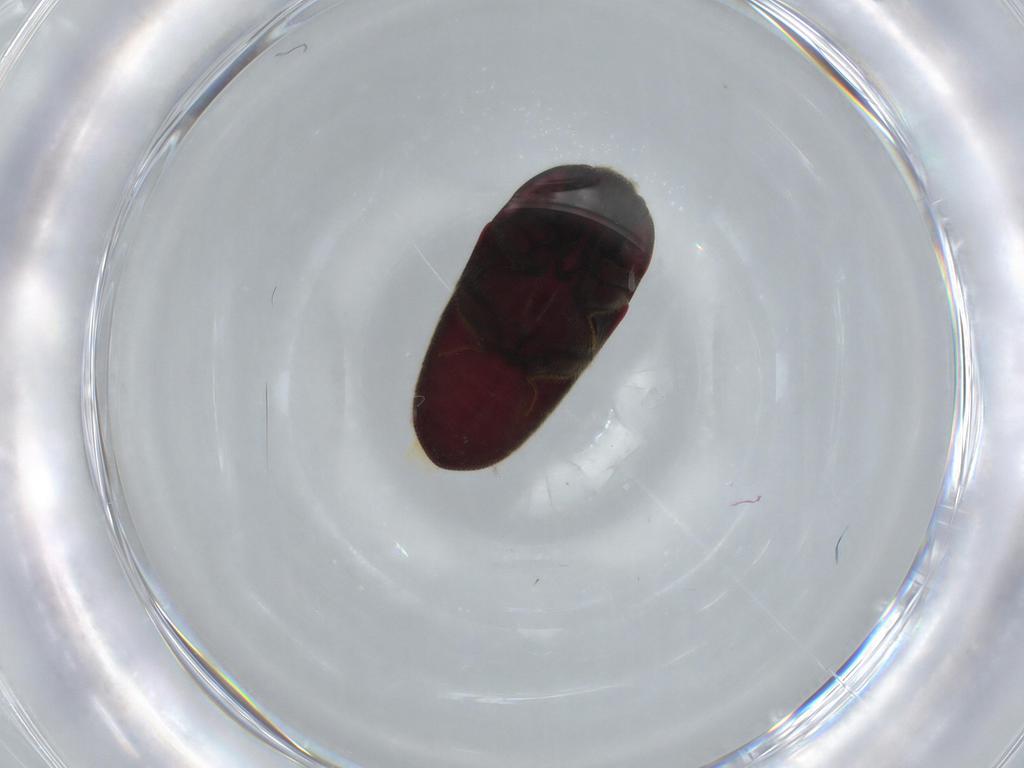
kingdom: Animalia
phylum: Arthropoda
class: Insecta
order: Coleoptera
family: Throscidae
